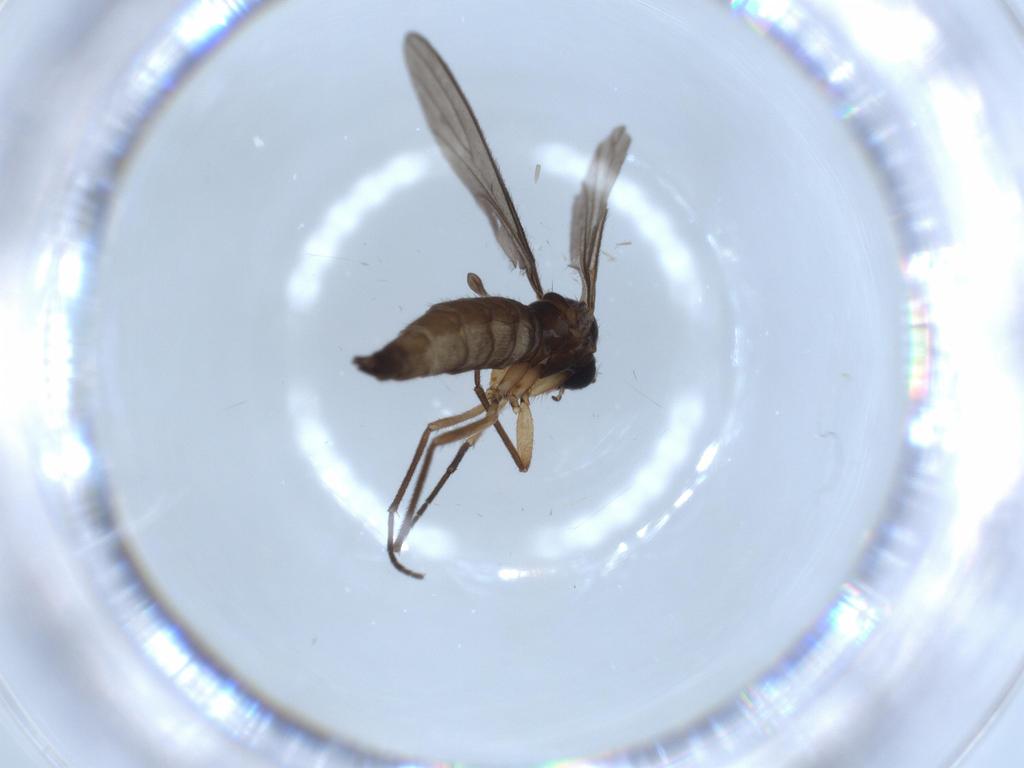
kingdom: Animalia
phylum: Arthropoda
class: Insecta
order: Diptera
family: Sciaridae
